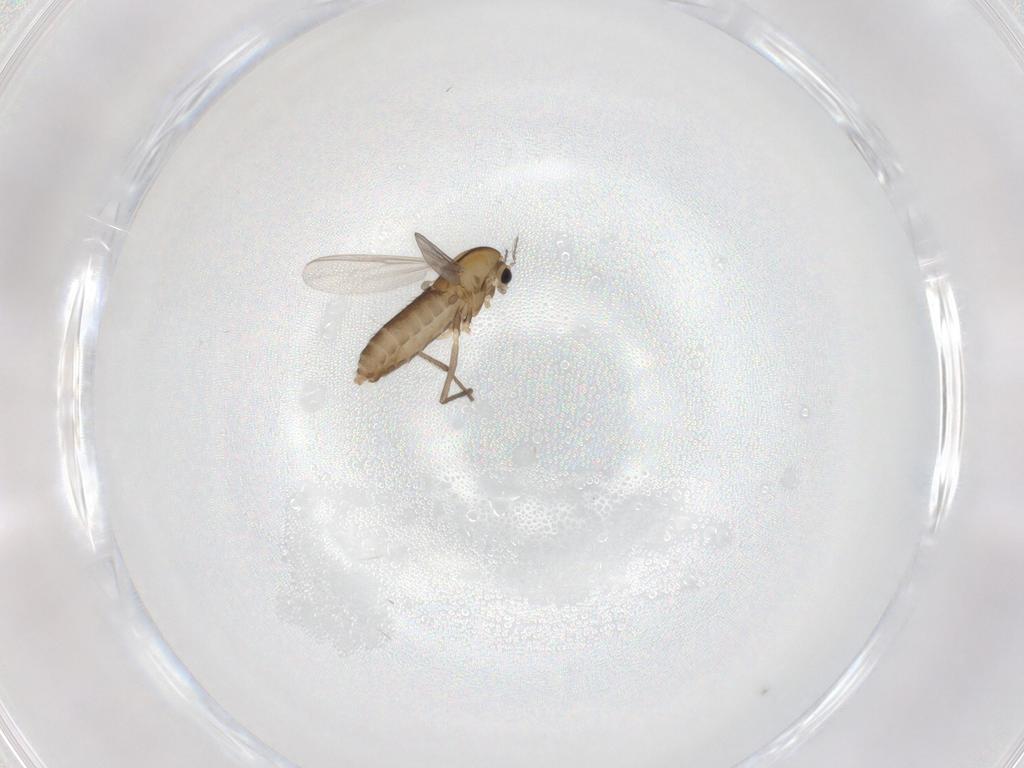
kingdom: Animalia
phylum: Arthropoda
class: Insecta
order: Diptera
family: Chironomidae
